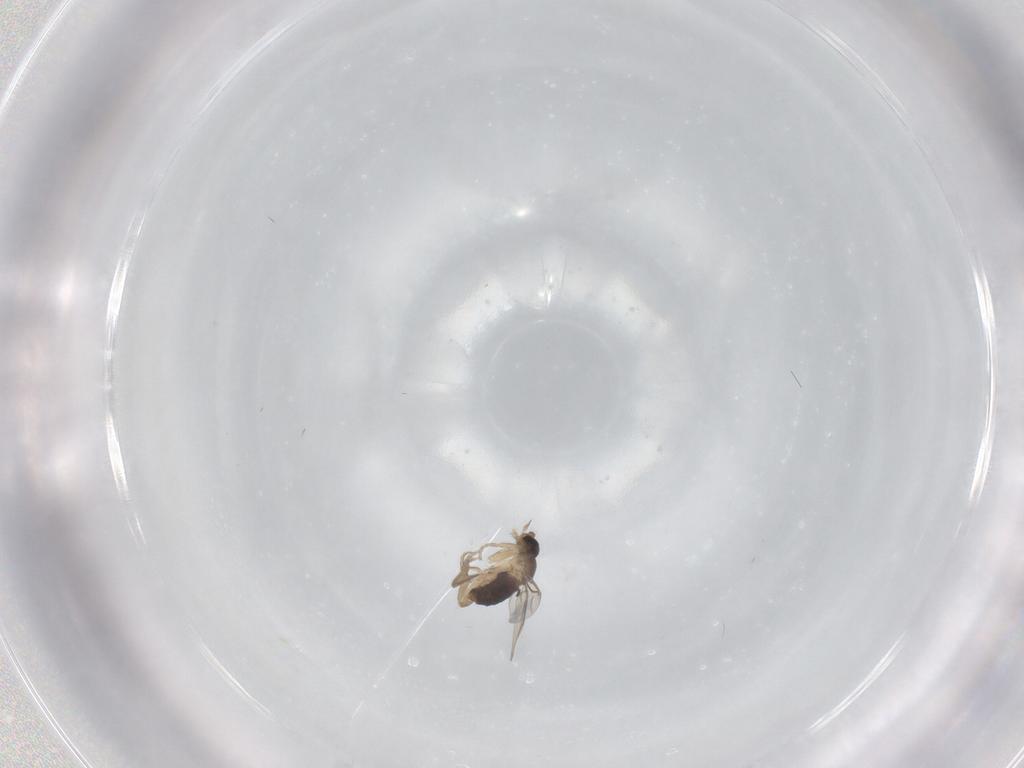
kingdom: Animalia
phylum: Arthropoda
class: Insecta
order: Diptera
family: Phoridae
